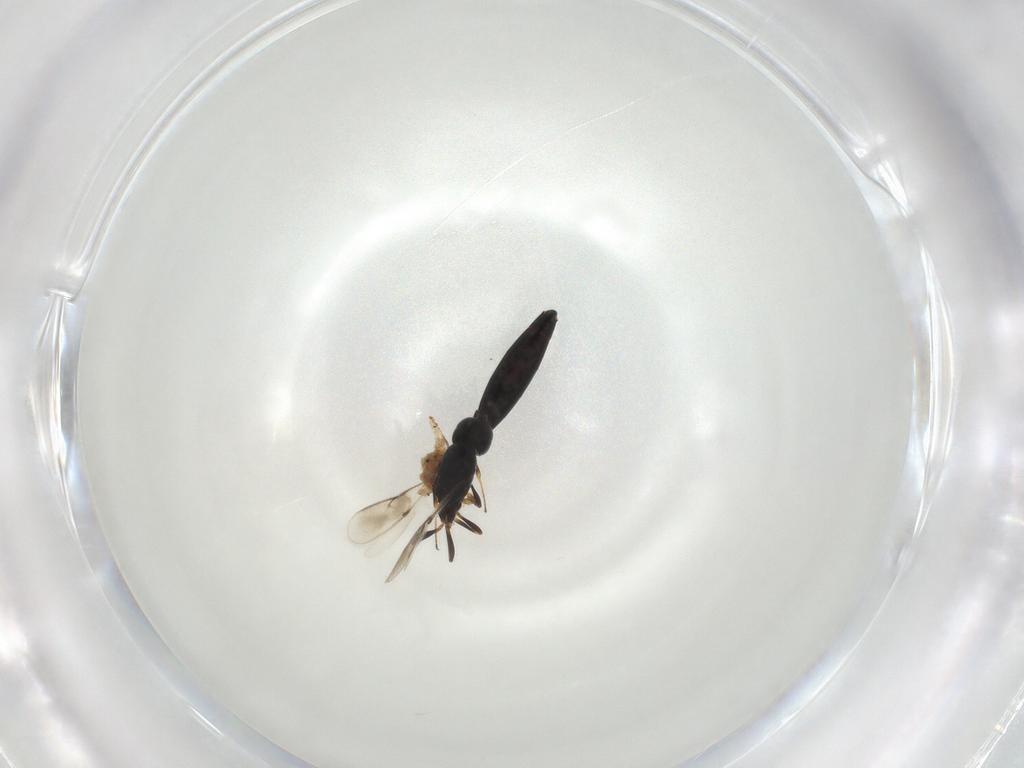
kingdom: Animalia
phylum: Arthropoda
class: Insecta
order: Hymenoptera
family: Scelionidae
